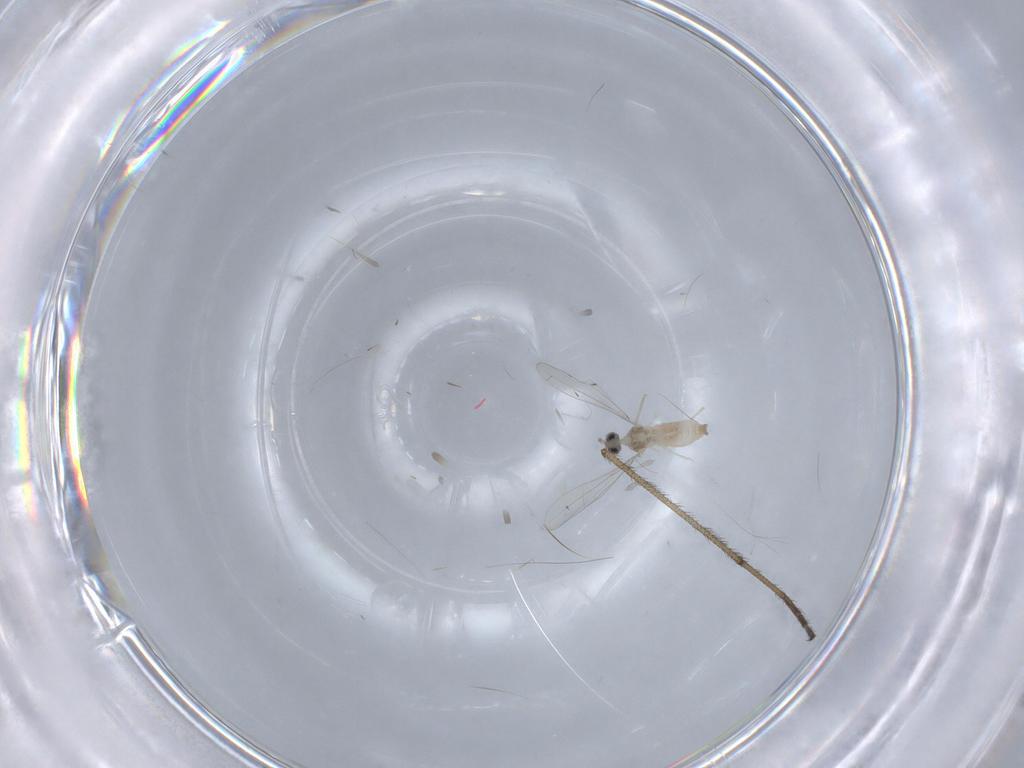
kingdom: Animalia
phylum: Arthropoda
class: Insecta
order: Diptera
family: Cecidomyiidae
